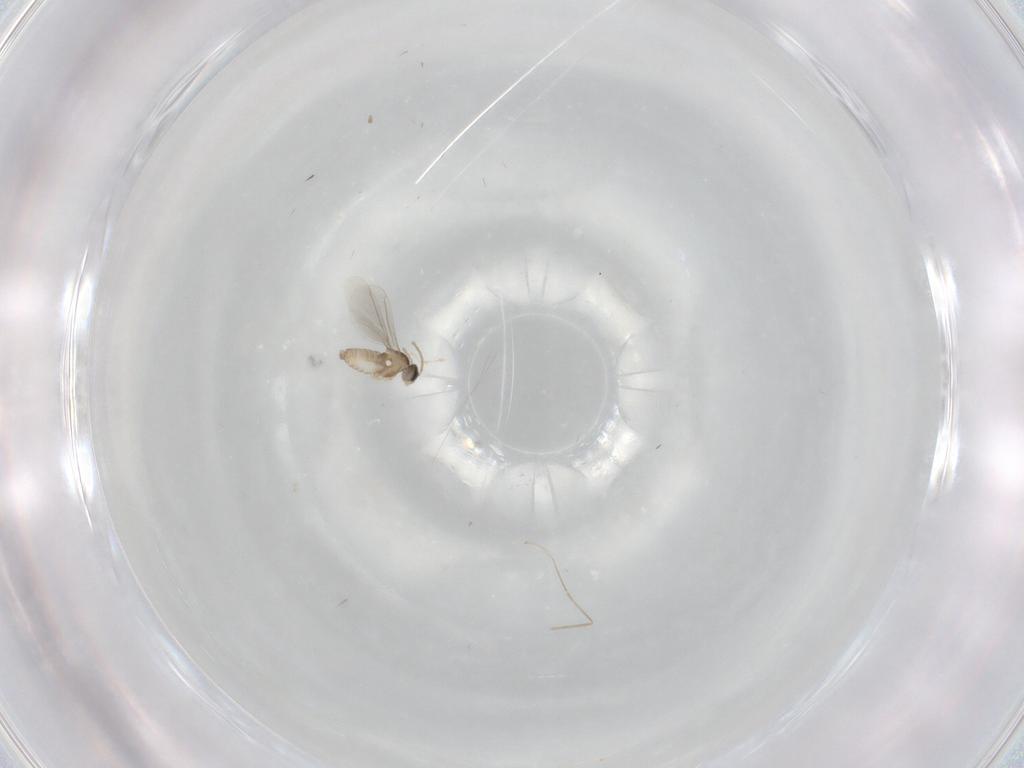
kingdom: Animalia
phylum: Arthropoda
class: Insecta
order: Diptera
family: Cecidomyiidae
